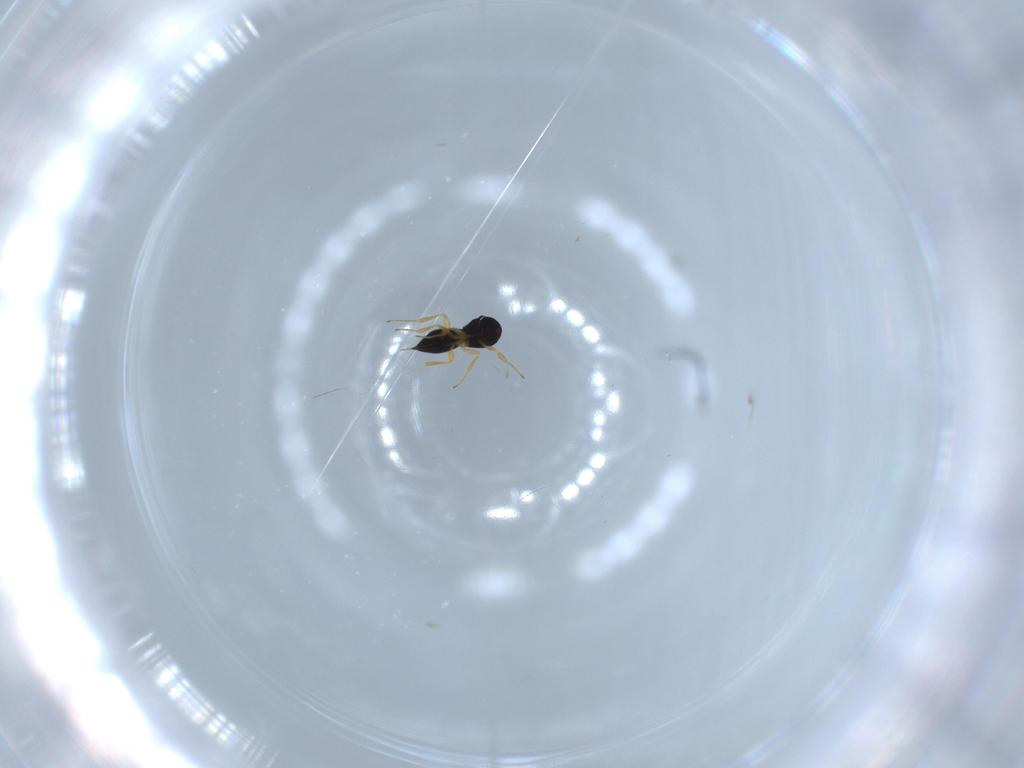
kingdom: Animalia
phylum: Arthropoda
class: Insecta
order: Hymenoptera
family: Scelionidae
